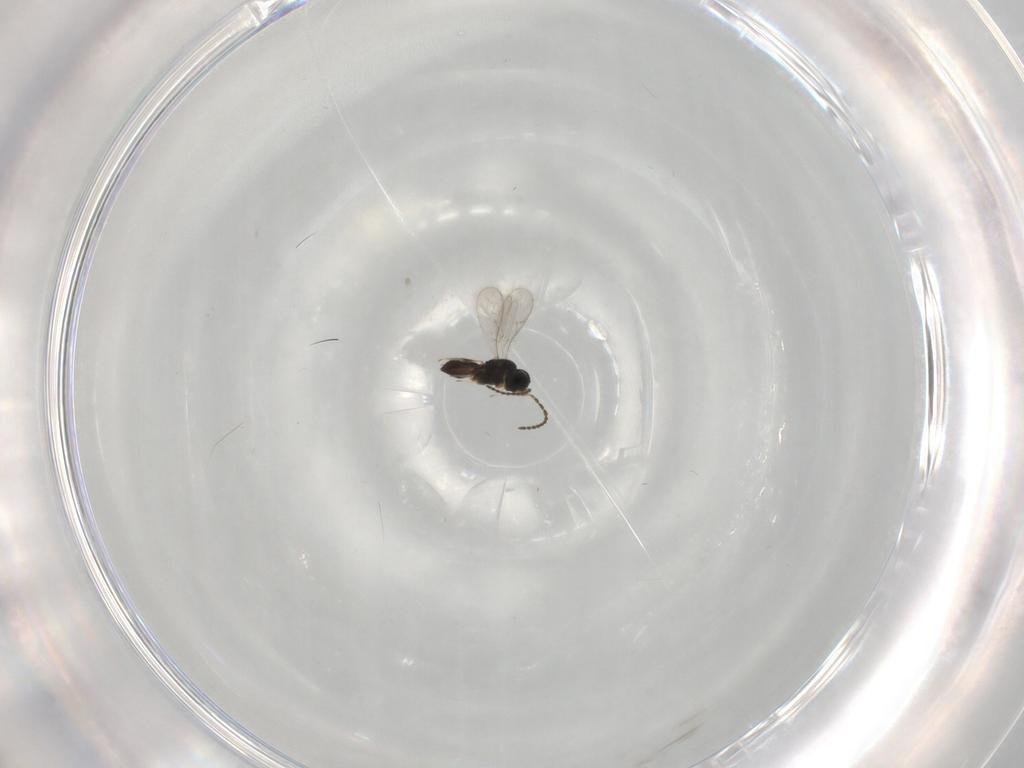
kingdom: Animalia
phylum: Arthropoda
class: Insecta
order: Hymenoptera
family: Scelionidae
